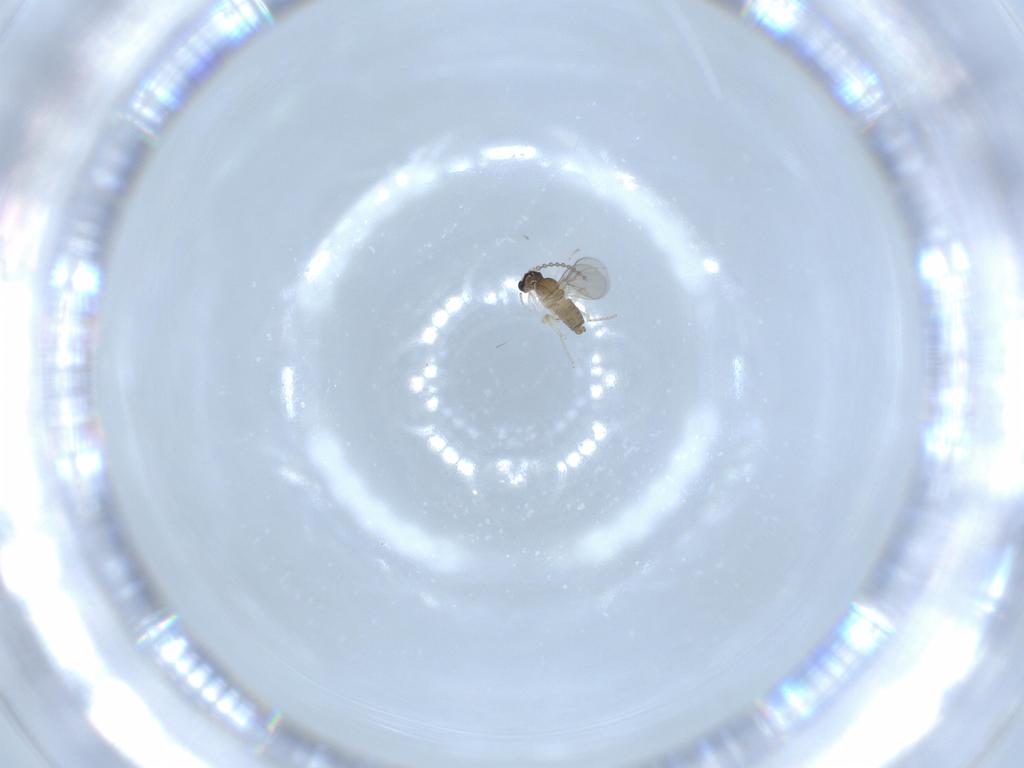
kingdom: Animalia
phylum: Arthropoda
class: Insecta
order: Diptera
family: Cecidomyiidae
